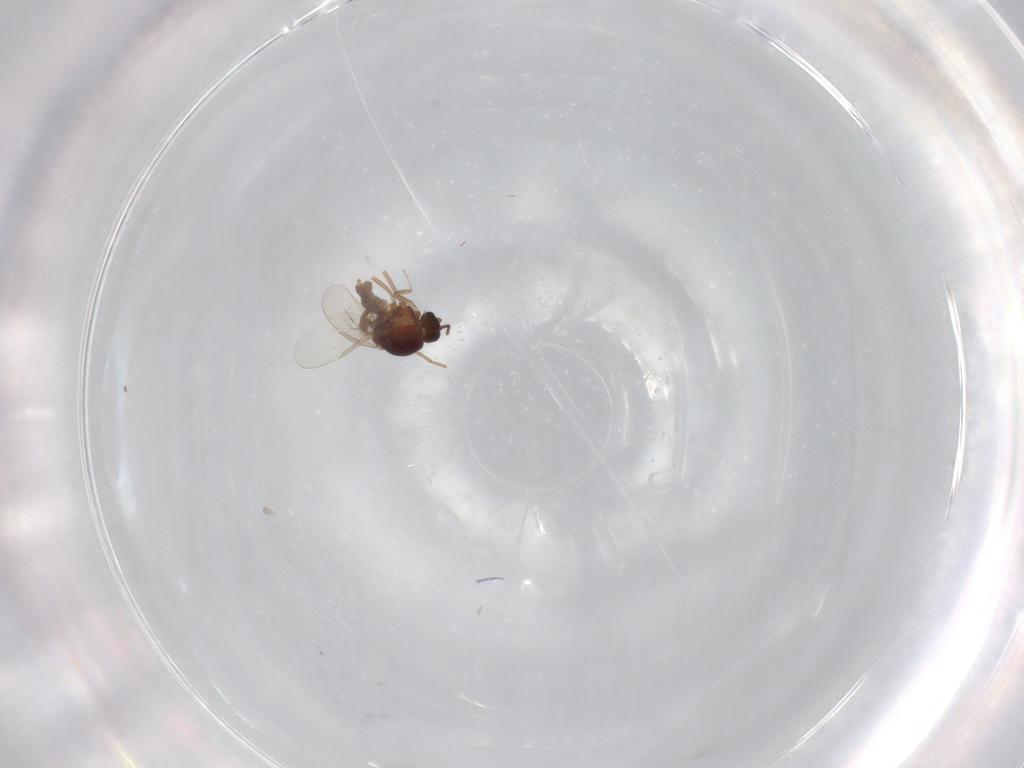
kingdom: Animalia
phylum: Arthropoda
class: Insecta
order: Diptera
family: Ceratopogonidae
